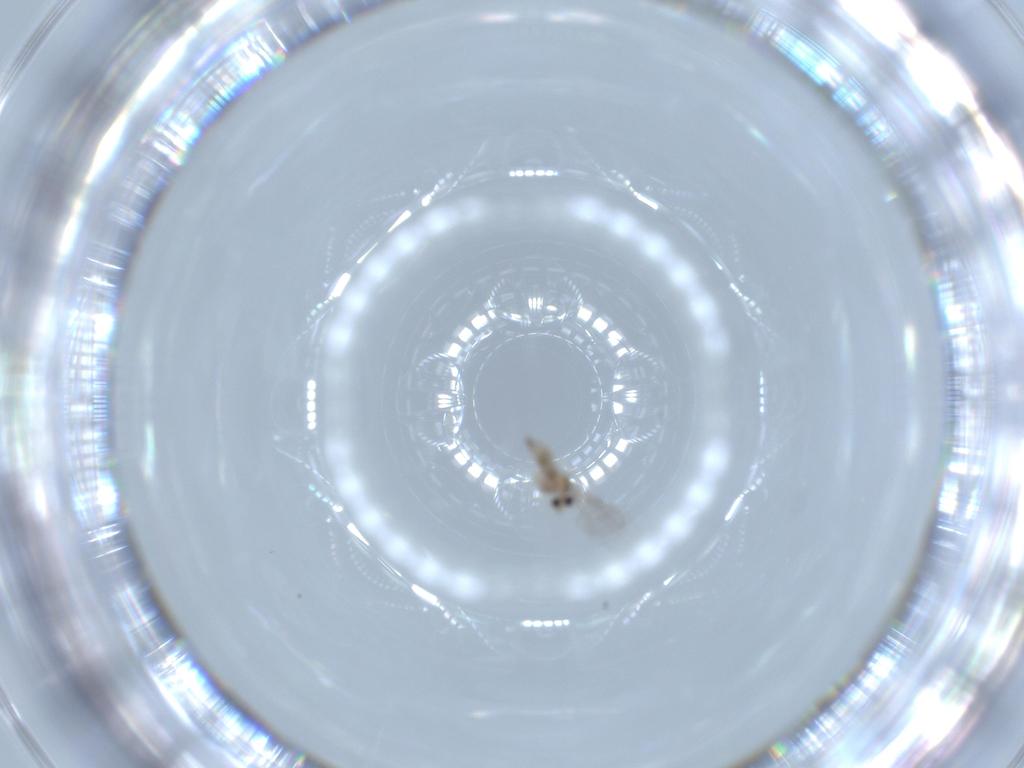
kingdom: Animalia
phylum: Arthropoda
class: Insecta
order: Diptera
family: Cecidomyiidae
